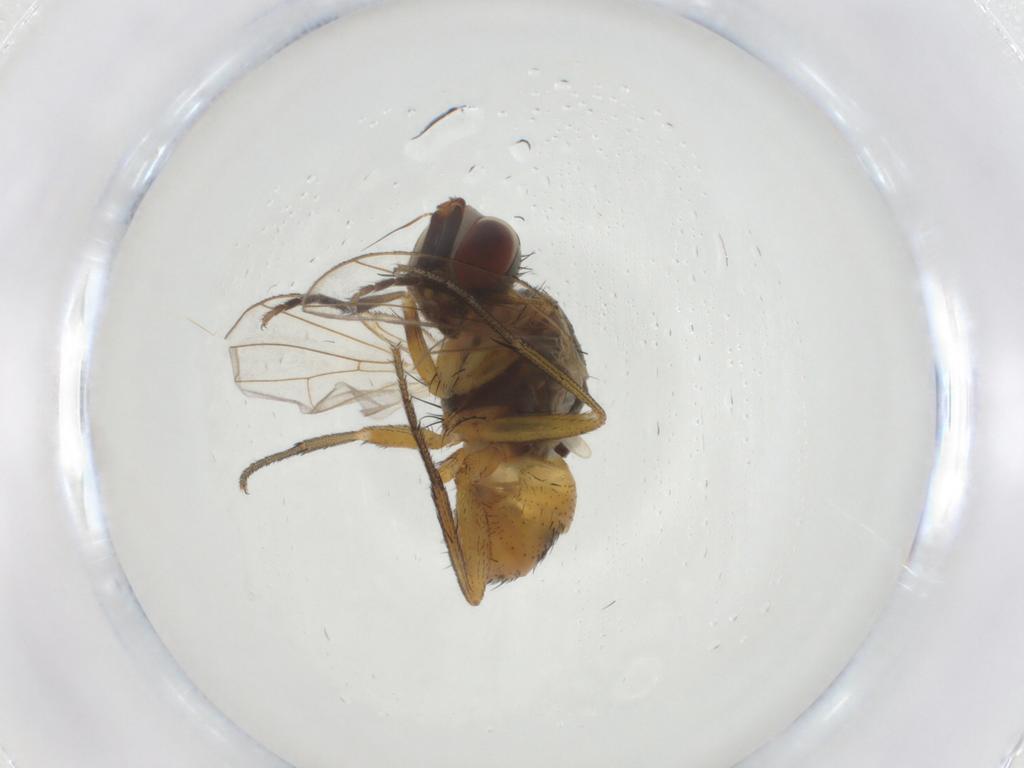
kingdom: Animalia
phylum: Arthropoda
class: Insecta
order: Diptera
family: Muscidae
